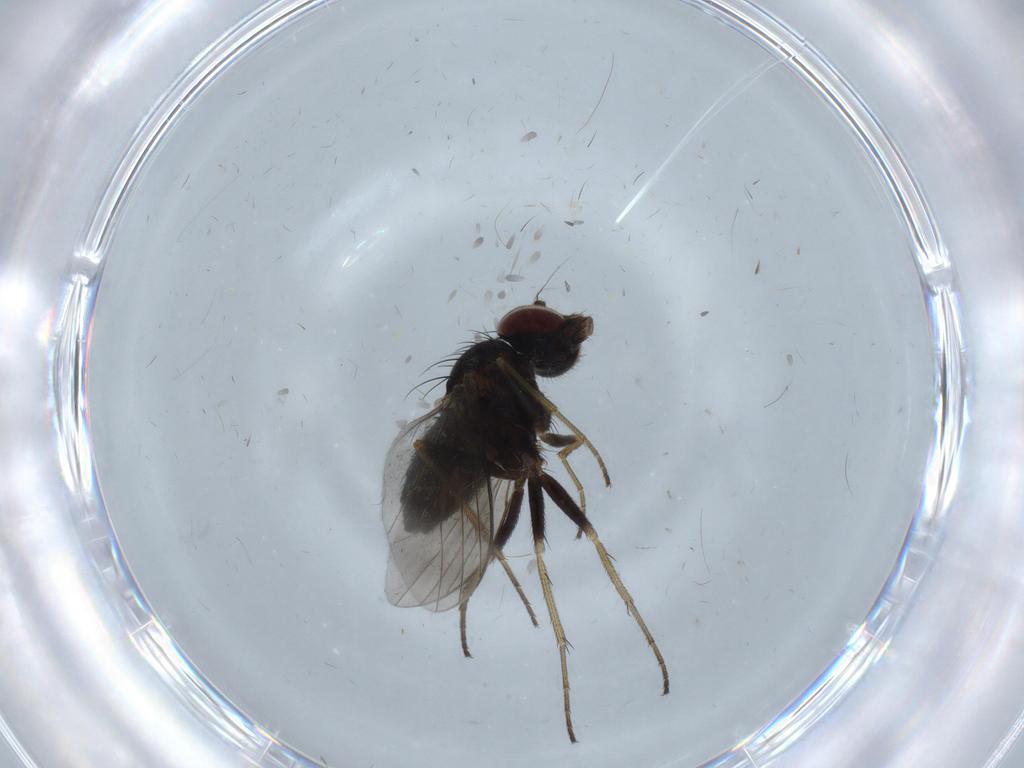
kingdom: Animalia
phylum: Arthropoda
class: Insecta
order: Diptera
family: Dolichopodidae
